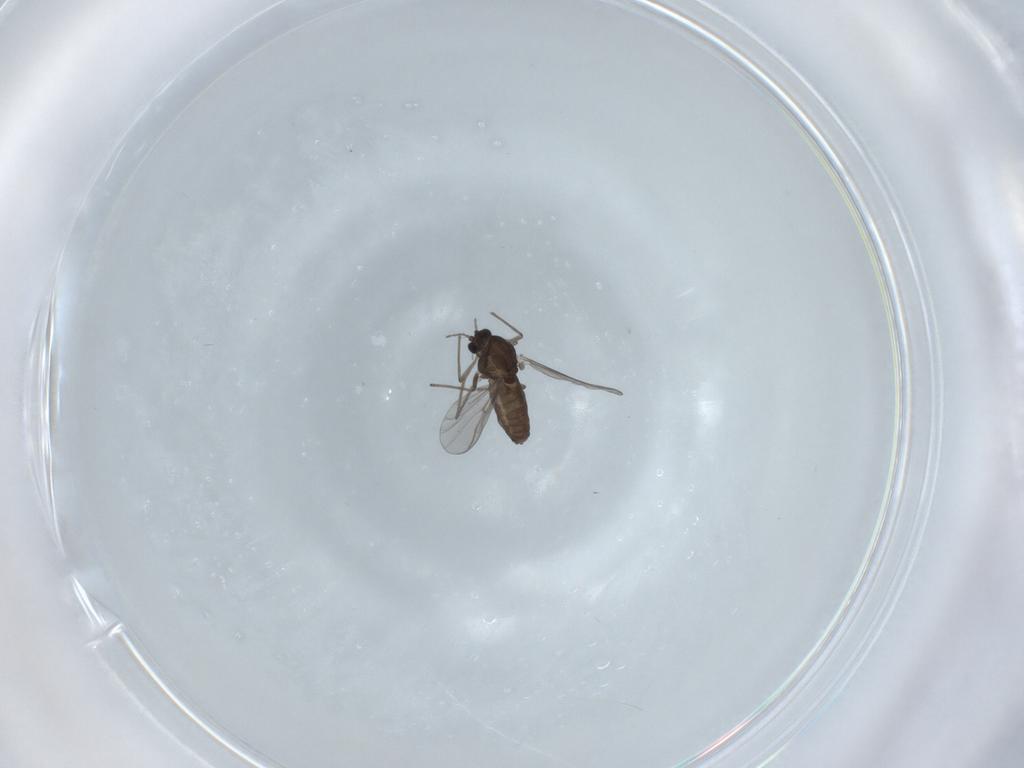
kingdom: Animalia
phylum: Arthropoda
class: Insecta
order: Diptera
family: Chironomidae
